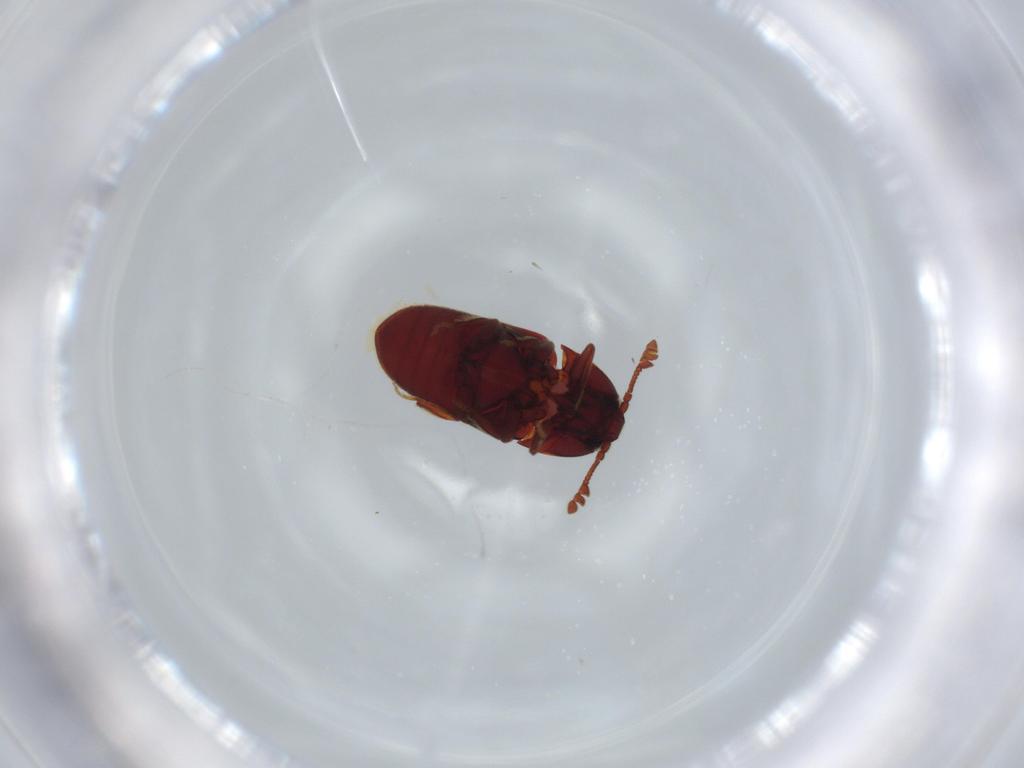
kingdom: Animalia
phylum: Arthropoda
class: Insecta
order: Coleoptera
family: Throscidae
